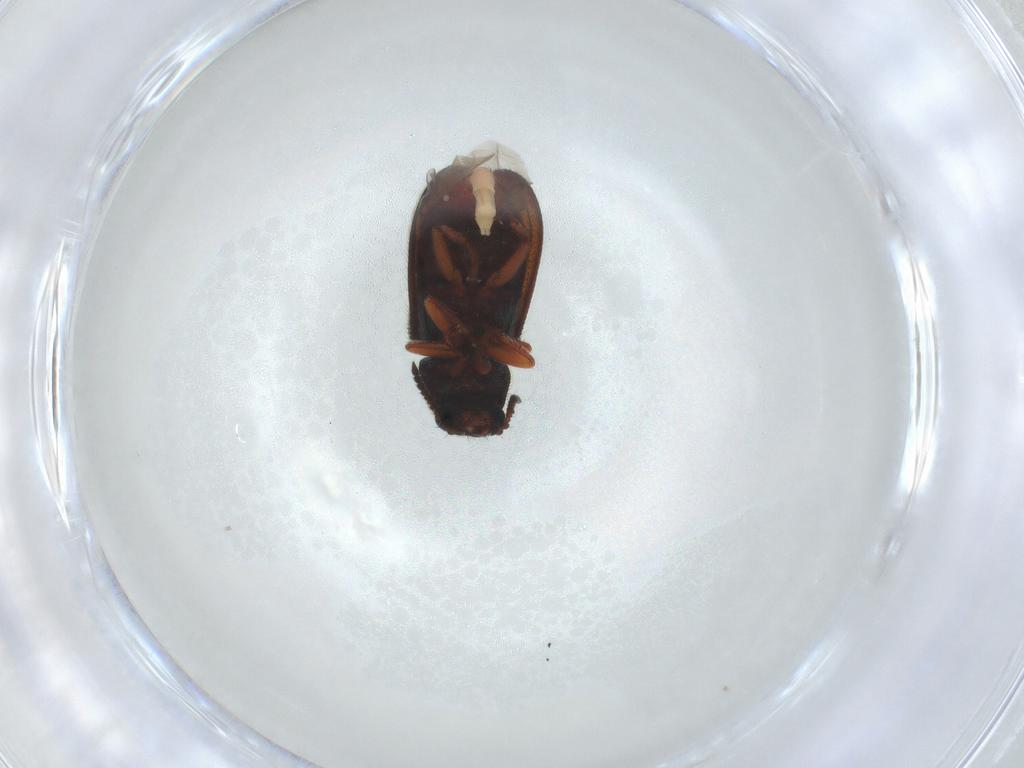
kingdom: Animalia
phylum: Arthropoda
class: Insecta
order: Coleoptera
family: Melyridae
